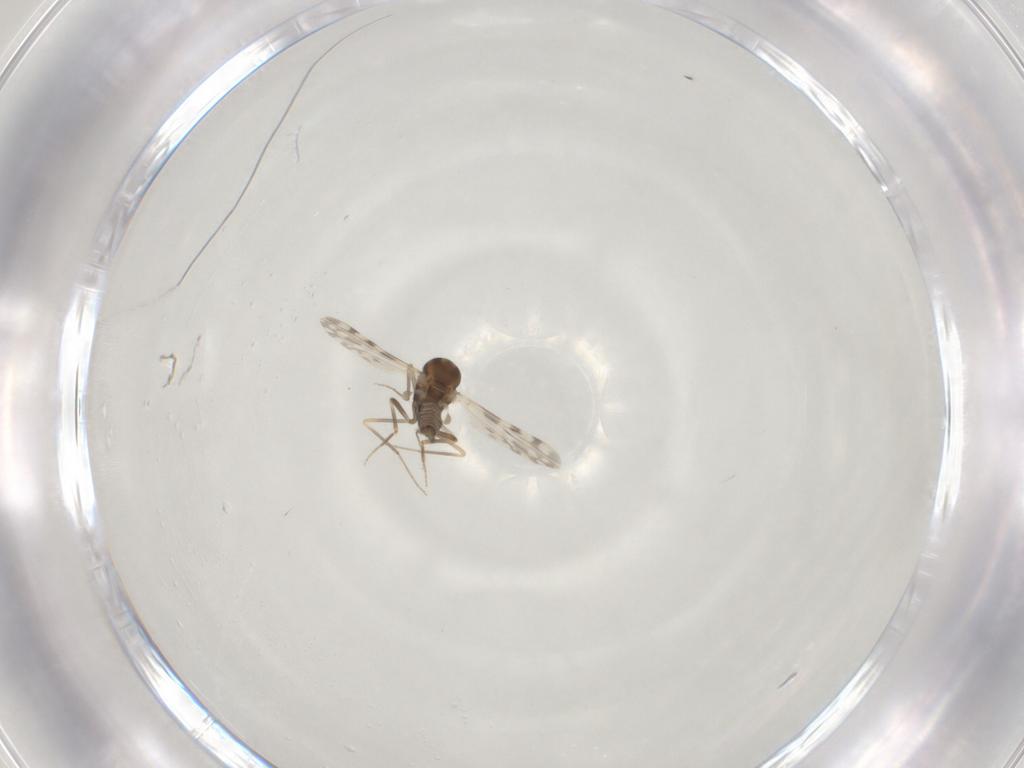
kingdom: Animalia
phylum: Arthropoda
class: Insecta
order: Diptera
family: Ceratopogonidae
